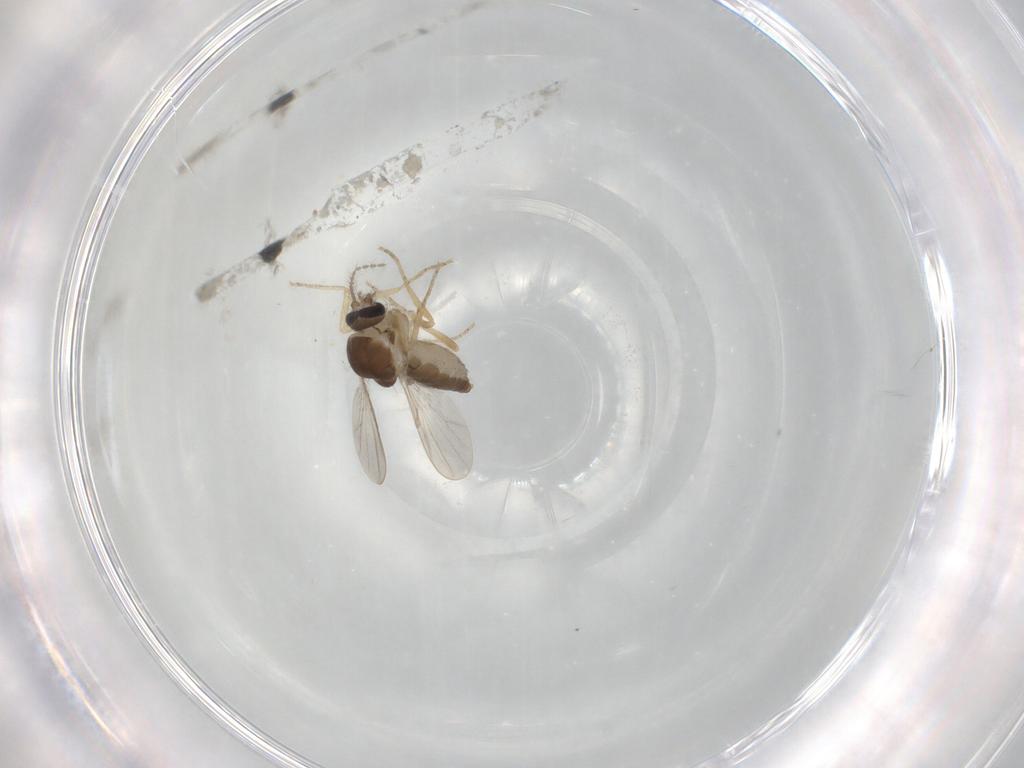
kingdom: Animalia
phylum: Arthropoda
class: Insecta
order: Diptera
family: Ceratopogonidae
